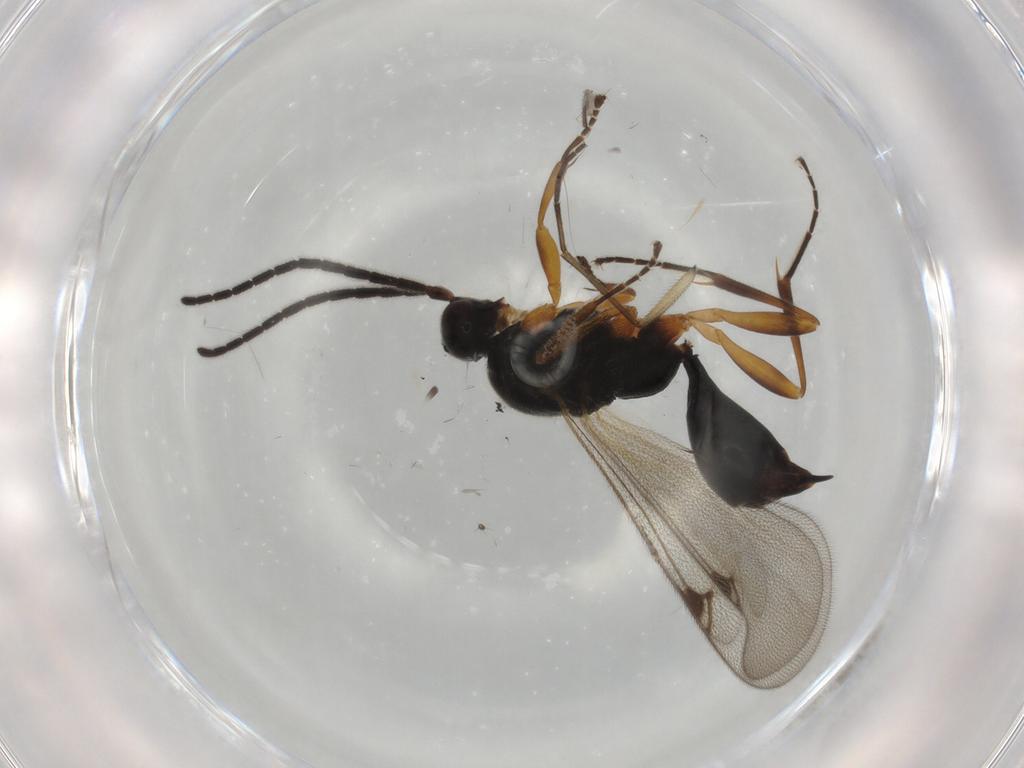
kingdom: Animalia
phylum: Arthropoda
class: Insecta
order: Hymenoptera
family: Proctotrupidae
